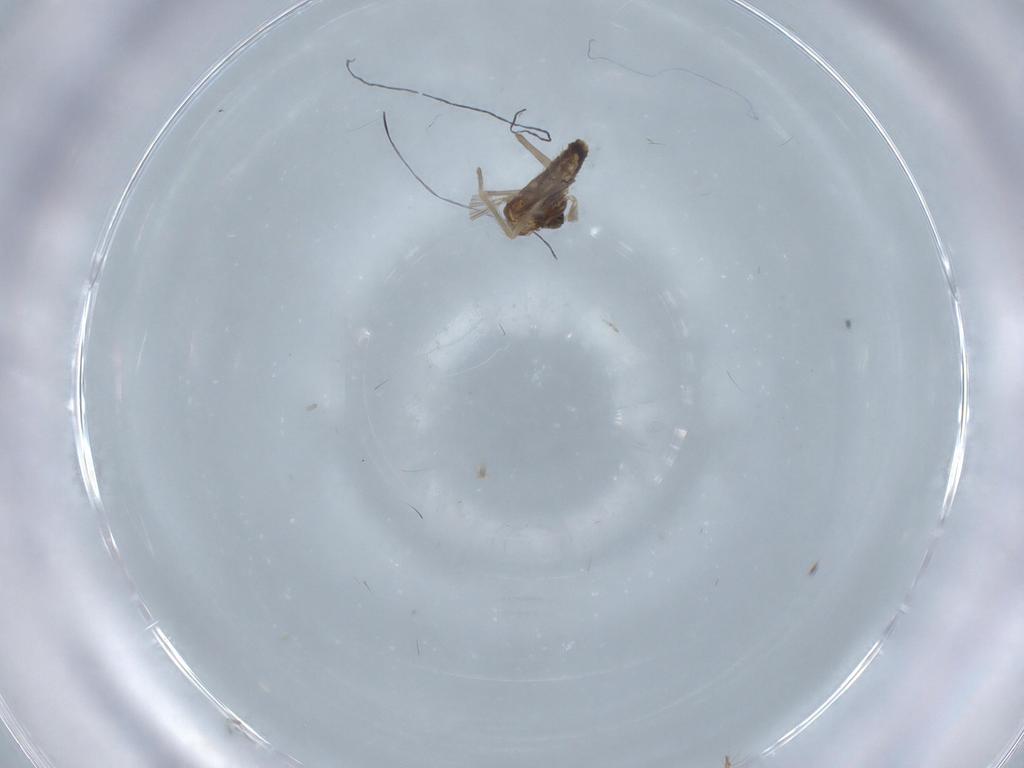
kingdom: Animalia
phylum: Arthropoda
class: Insecta
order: Diptera
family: Chironomidae
